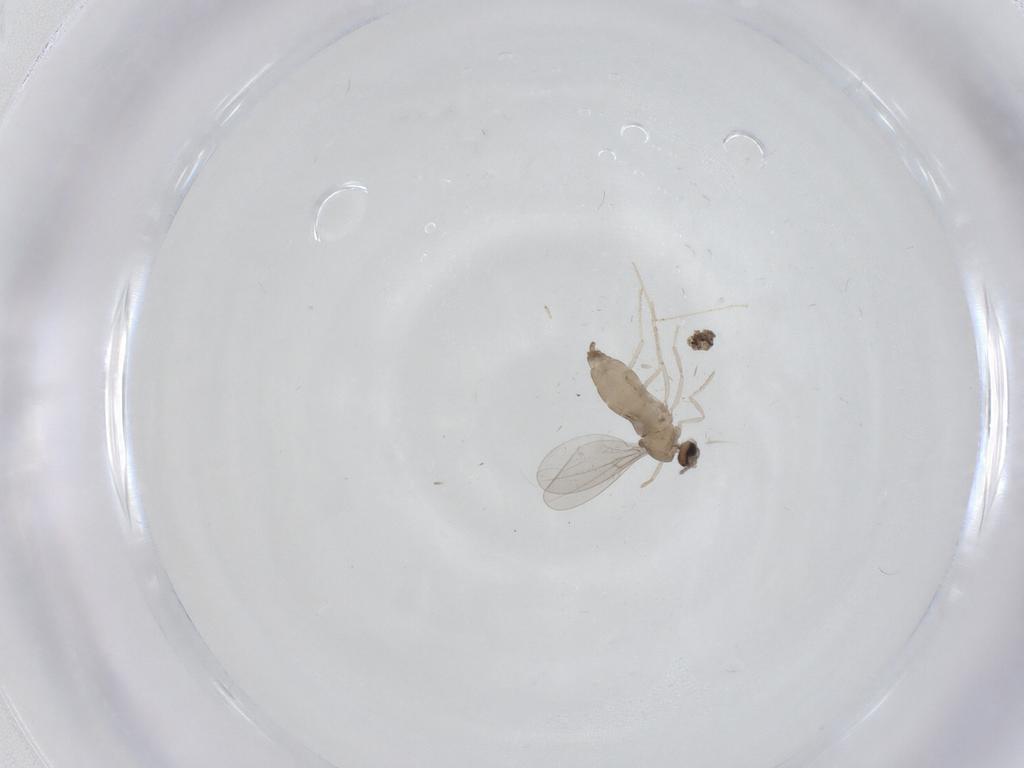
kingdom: Animalia
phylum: Arthropoda
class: Insecta
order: Diptera
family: Cecidomyiidae
